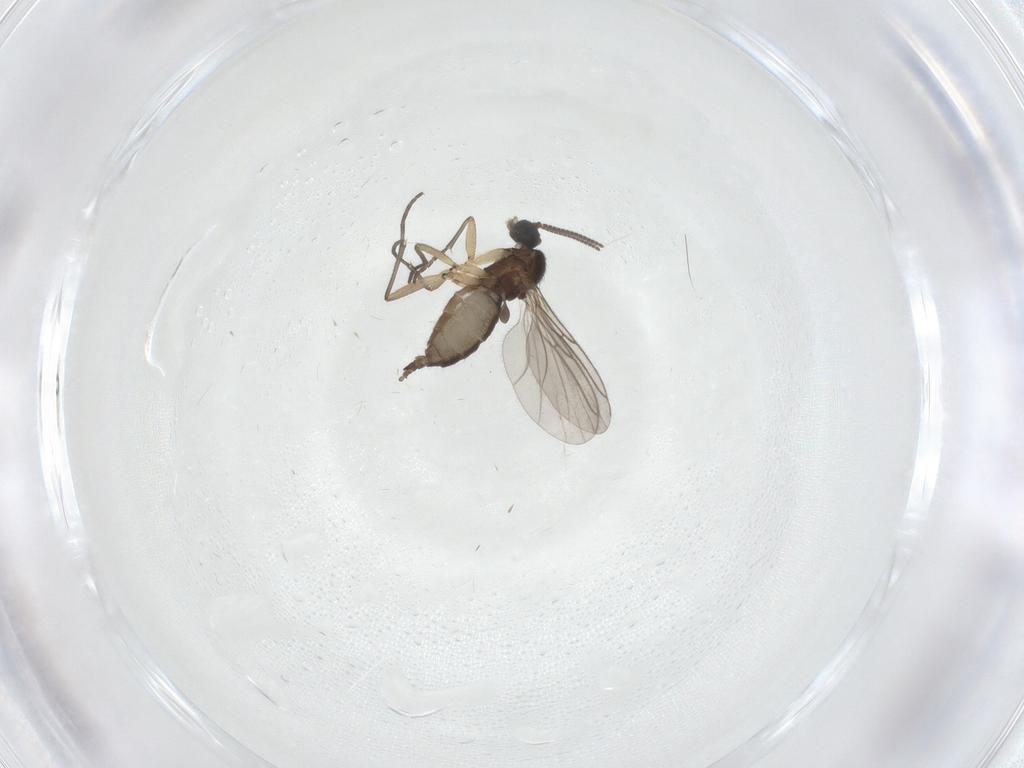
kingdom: Animalia
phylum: Arthropoda
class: Insecta
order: Diptera
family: Sciaridae
